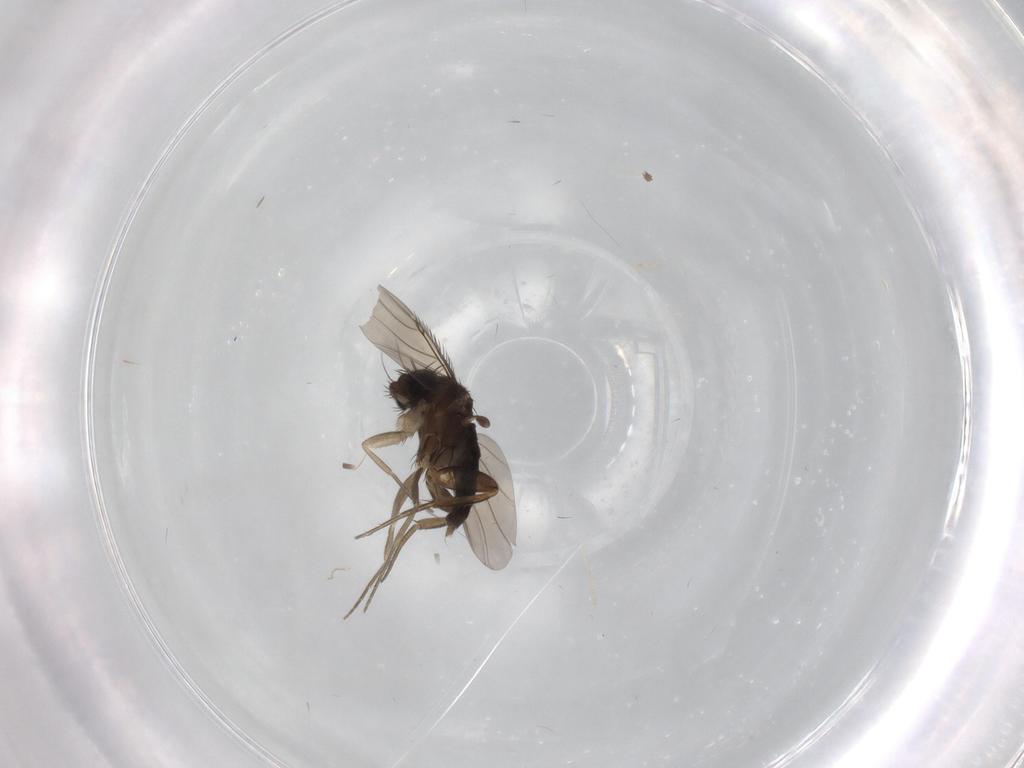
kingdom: Animalia
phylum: Arthropoda
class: Insecta
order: Diptera
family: Phoridae
